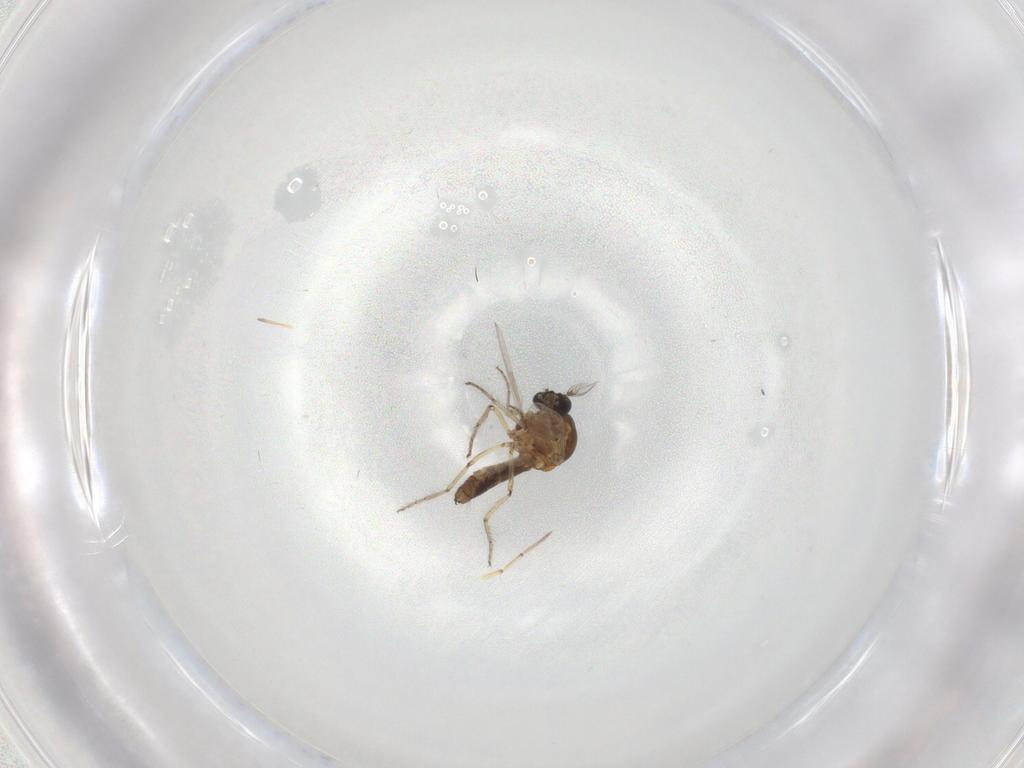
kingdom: Animalia
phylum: Arthropoda
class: Insecta
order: Diptera
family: Ceratopogonidae
